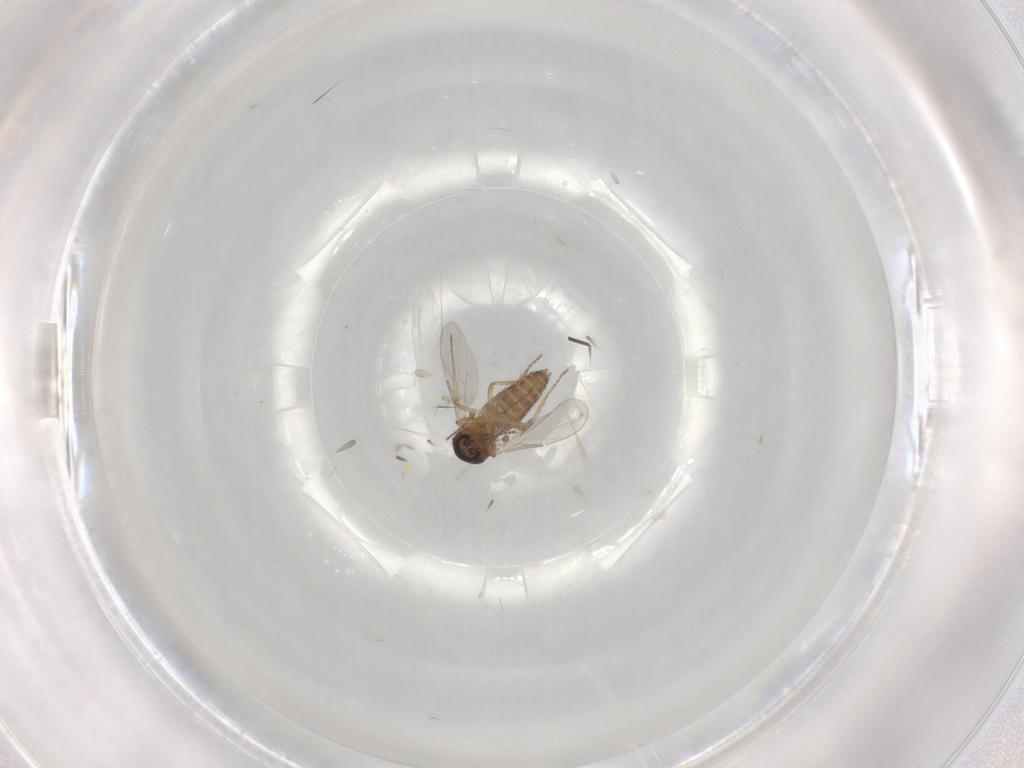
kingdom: Animalia
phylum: Arthropoda
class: Insecta
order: Diptera
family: Ceratopogonidae
